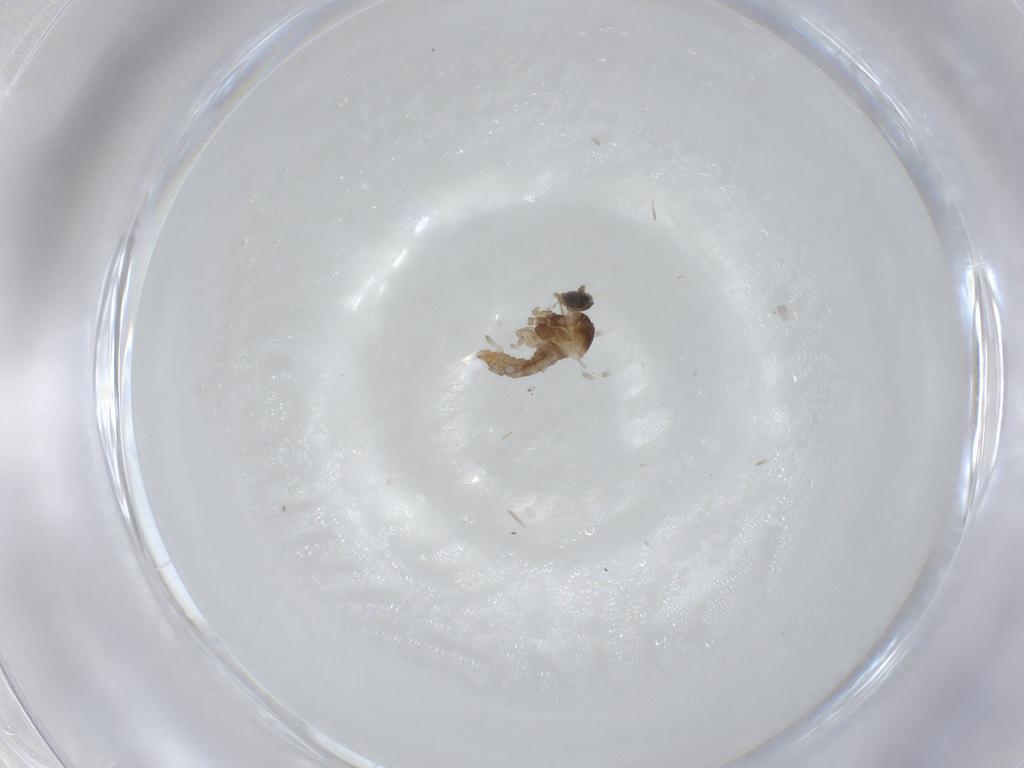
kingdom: Animalia
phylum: Arthropoda
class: Insecta
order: Diptera
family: Cecidomyiidae
